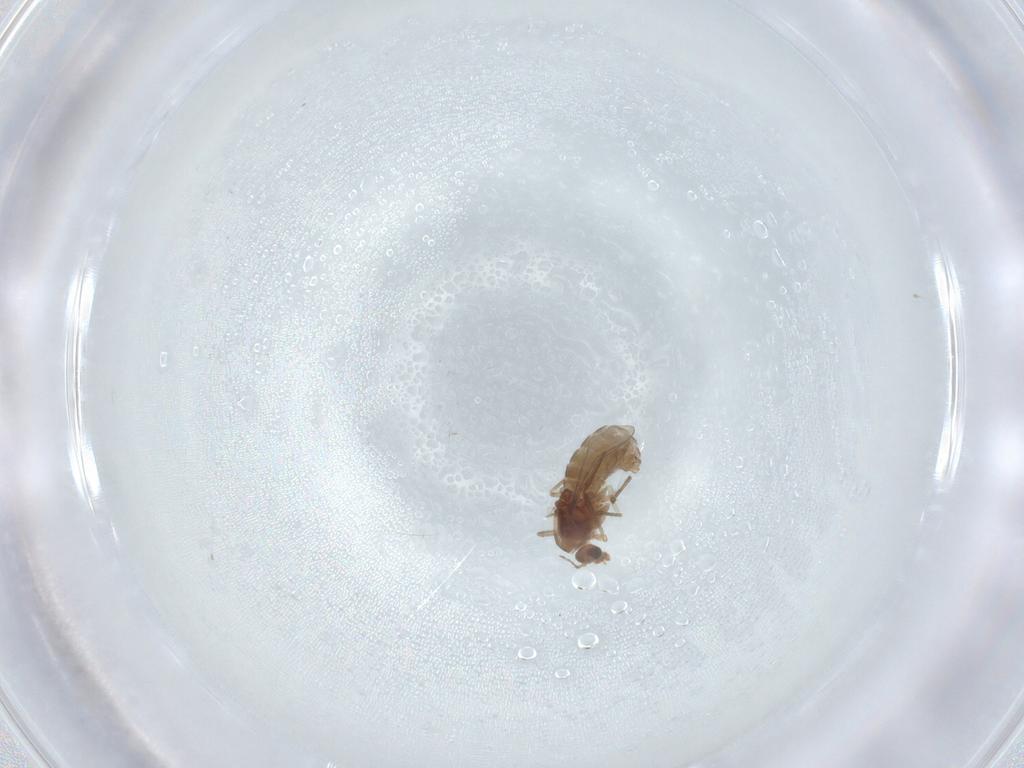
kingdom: Animalia
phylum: Arthropoda
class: Insecta
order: Diptera
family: Chironomidae
